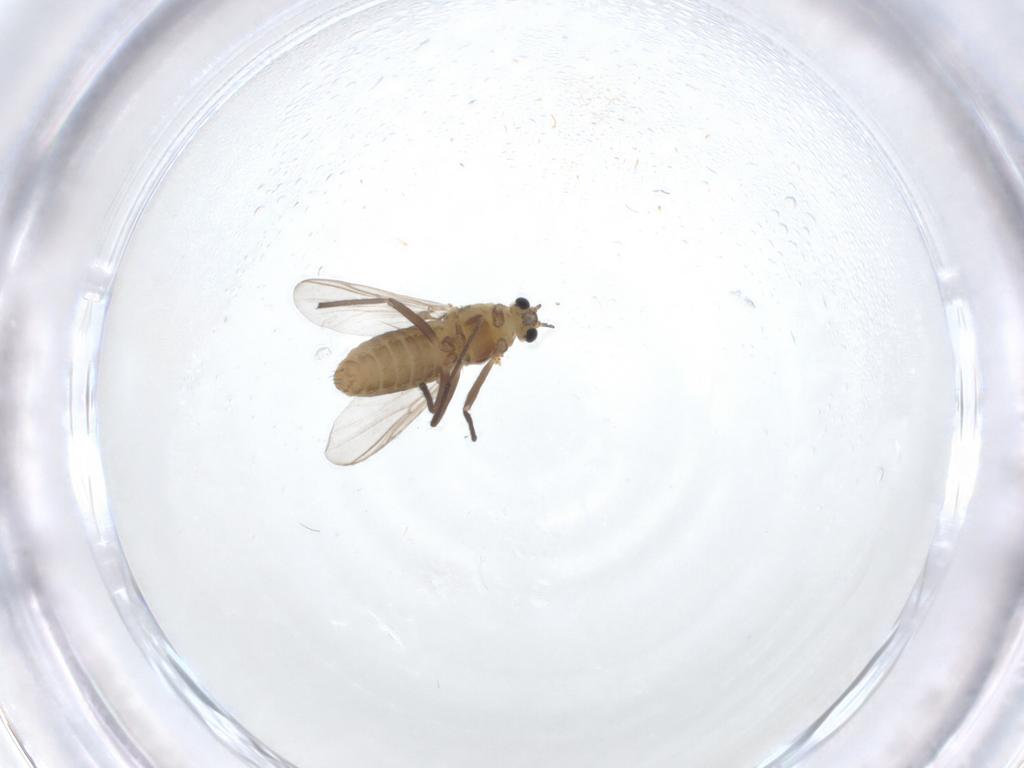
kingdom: Animalia
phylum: Arthropoda
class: Insecta
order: Diptera
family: Chironomidae
